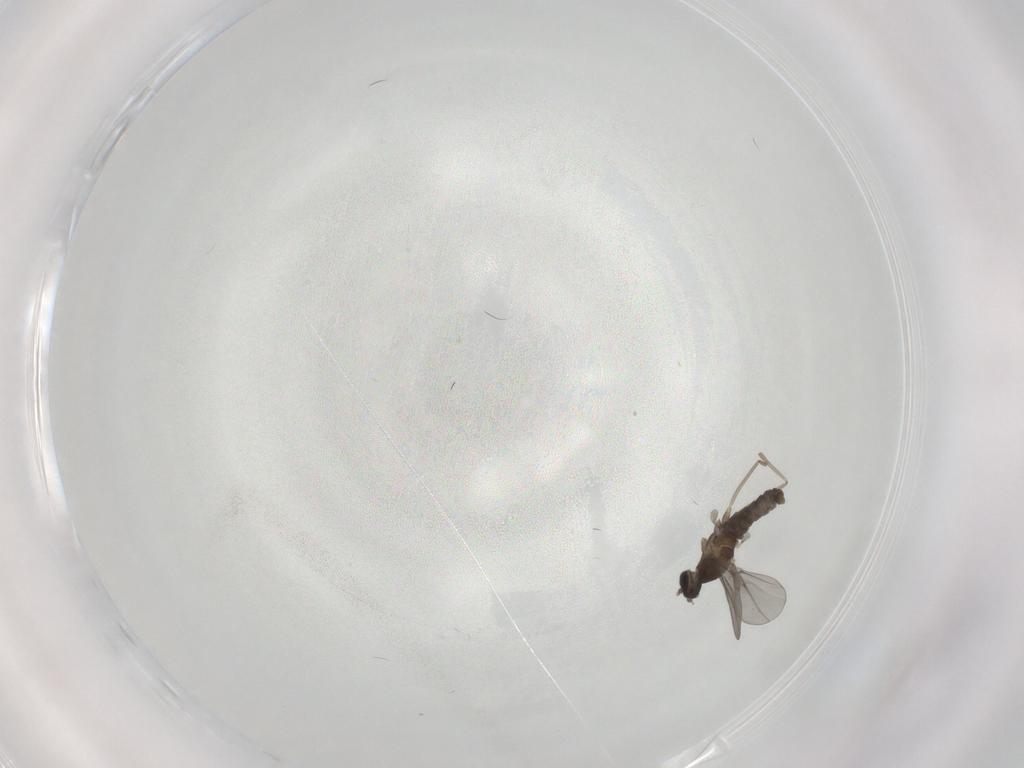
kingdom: Animalia
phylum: Arthropoda
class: Insecta
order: Diptera
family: Cecidomyiidae
